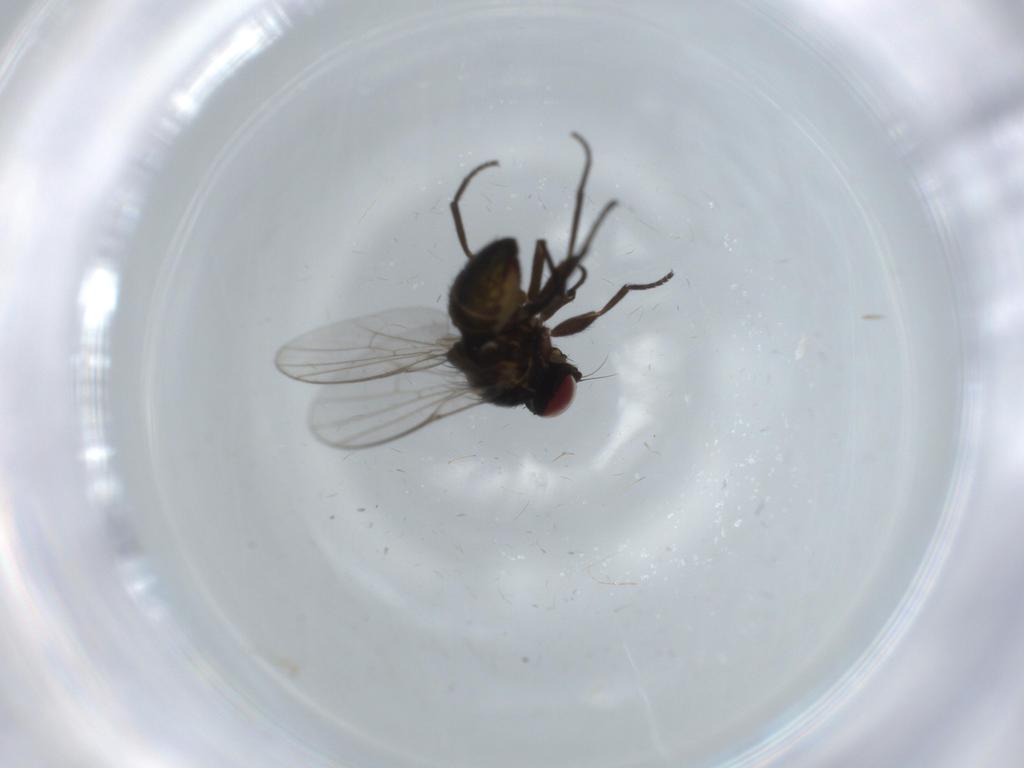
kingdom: Animalia
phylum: Arthropoda
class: Insecta
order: Diptera
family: Agromyzidae
